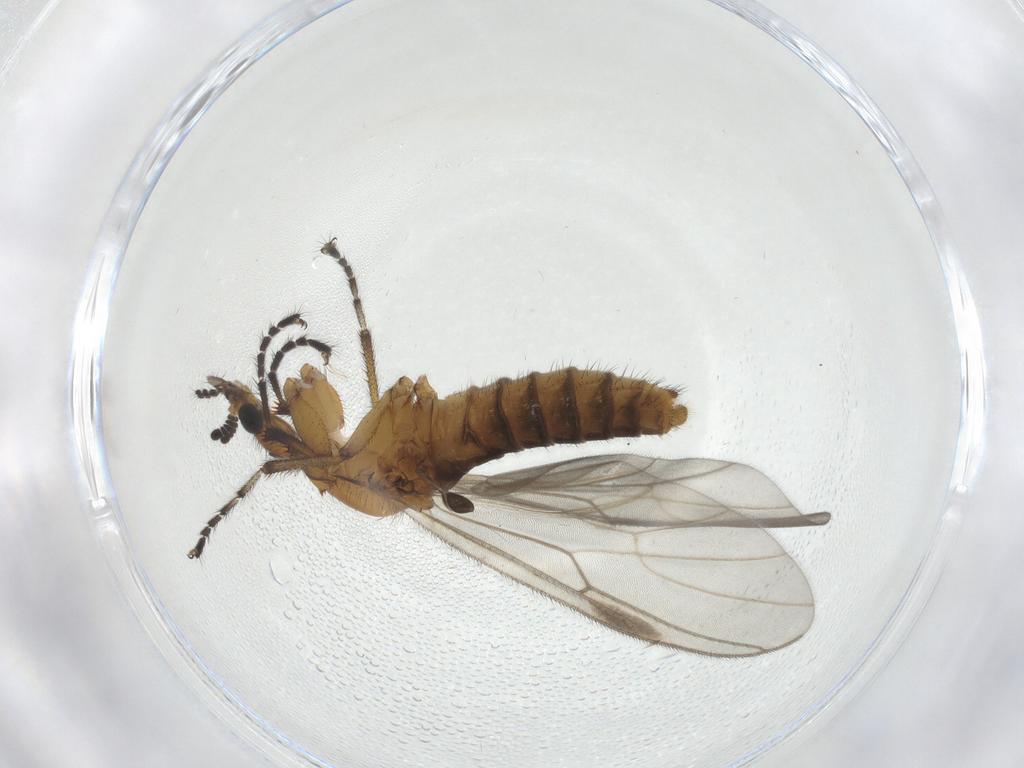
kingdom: Animalia
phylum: Arthropoda
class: Insecta
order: Diptera
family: Bibionidae
